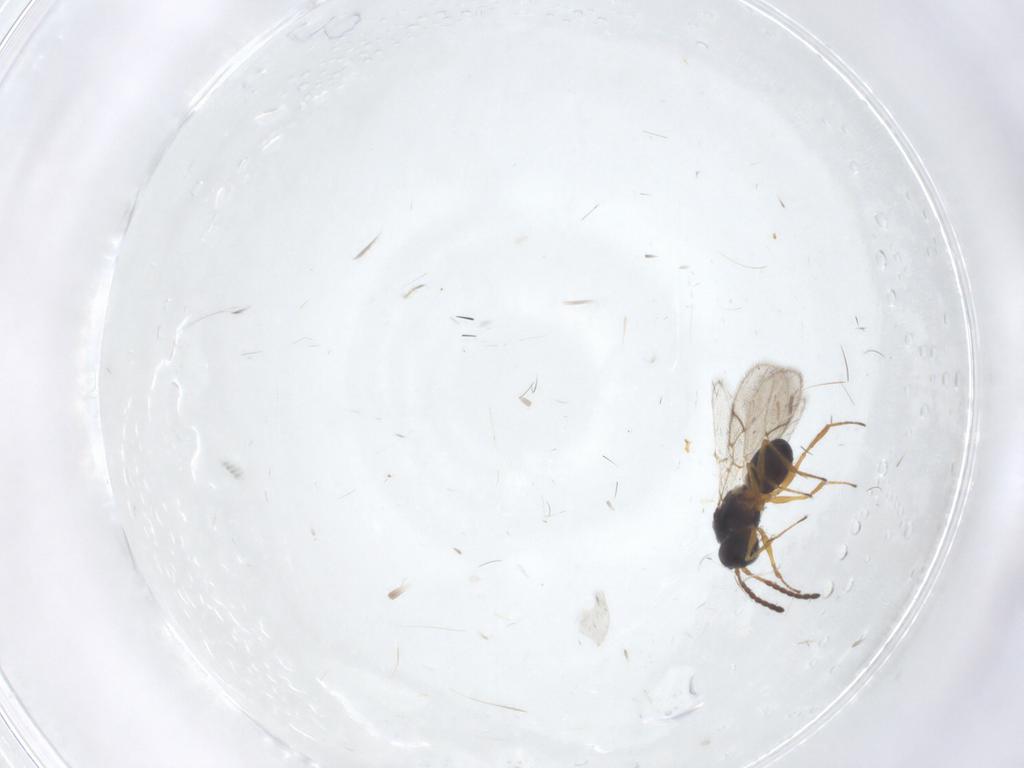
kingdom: Animalia
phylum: Arthropoda
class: Insecta
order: Hymenoptera
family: Figitidae
